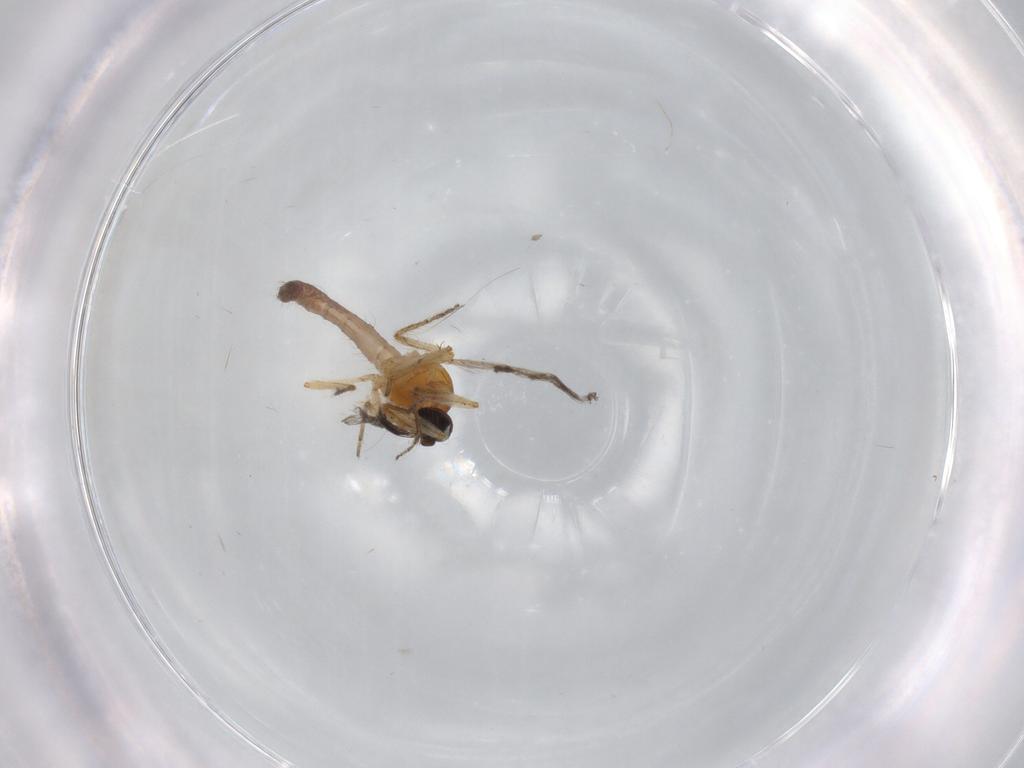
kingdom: Animalia
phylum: Arthropoda
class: Insecta
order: Diptera
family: Ceratopogonidae
